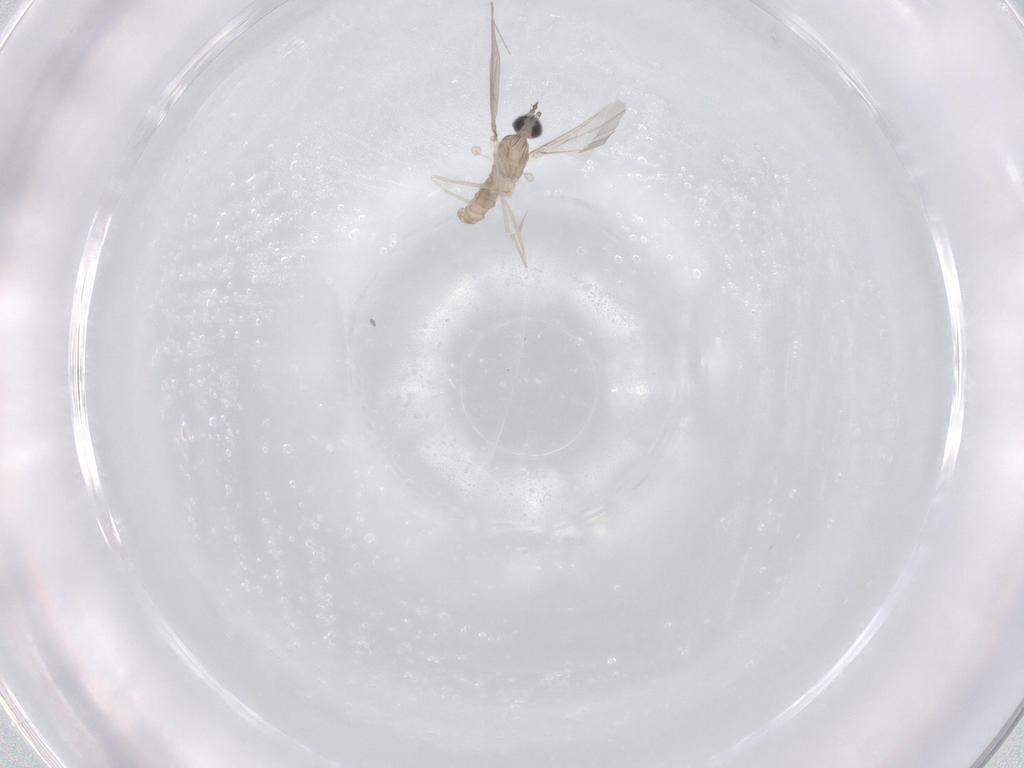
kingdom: Animalia
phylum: Arthropoda
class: Insecta
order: Diptera
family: Cecidomyiidae
